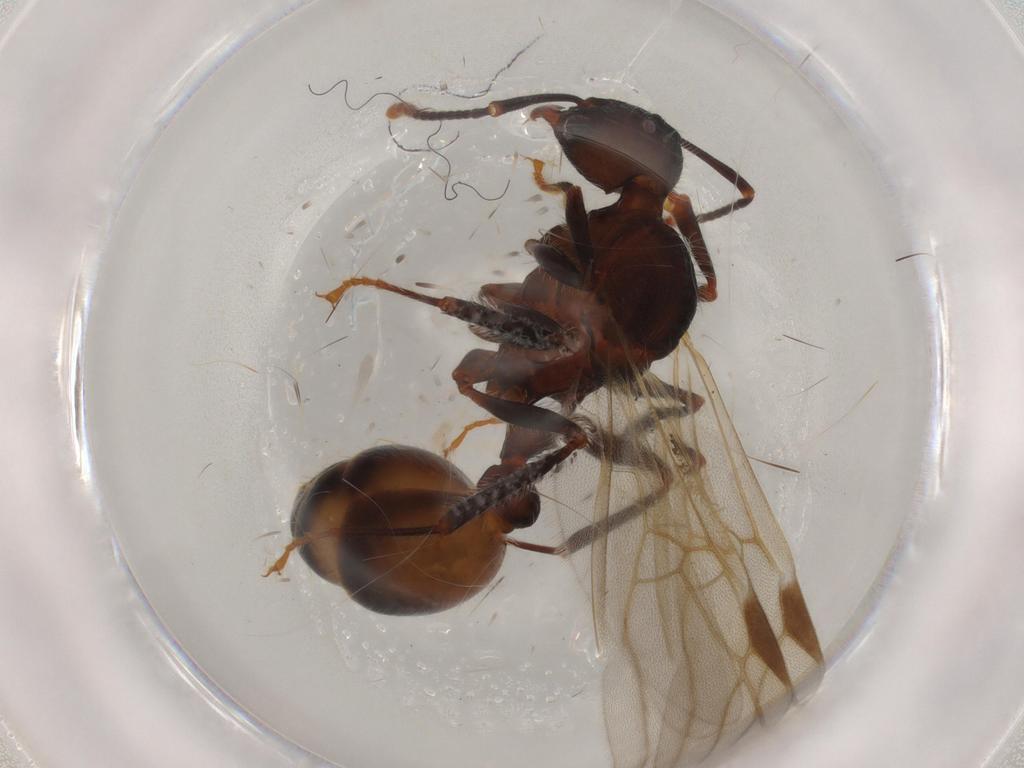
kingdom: Animalia
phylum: Arthropoda
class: Insecta
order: Hymenoptera
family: Formicidae
